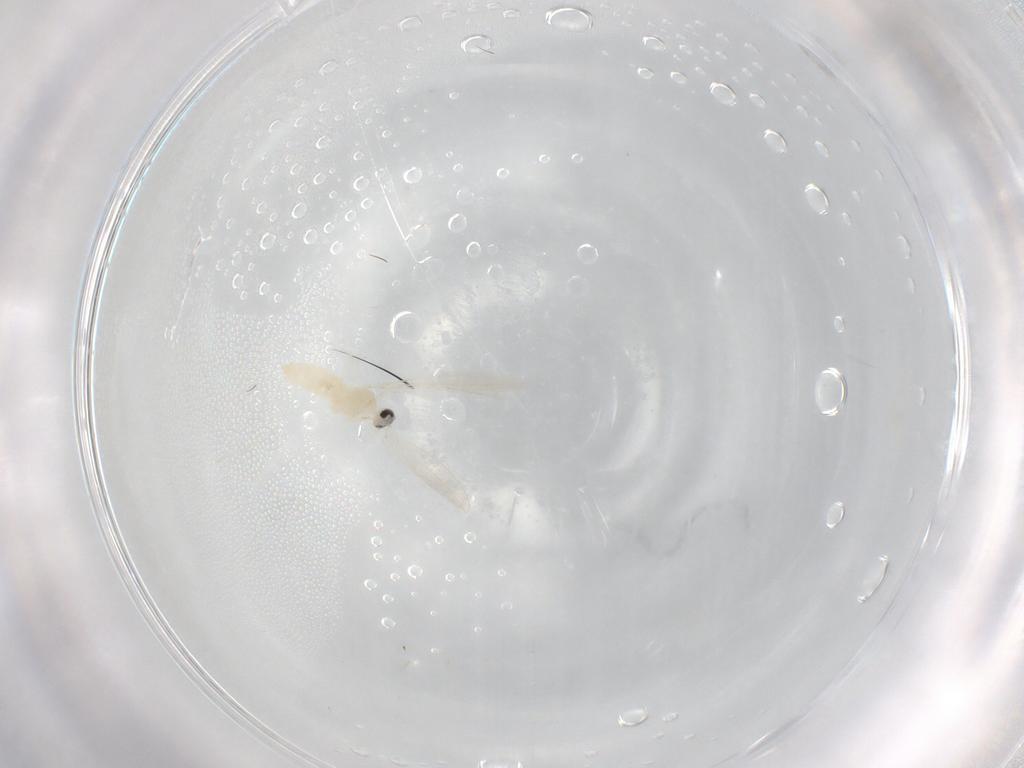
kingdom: Animalia
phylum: Arthropoda
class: Insecta
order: Diptera
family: Cecidomyiidae
